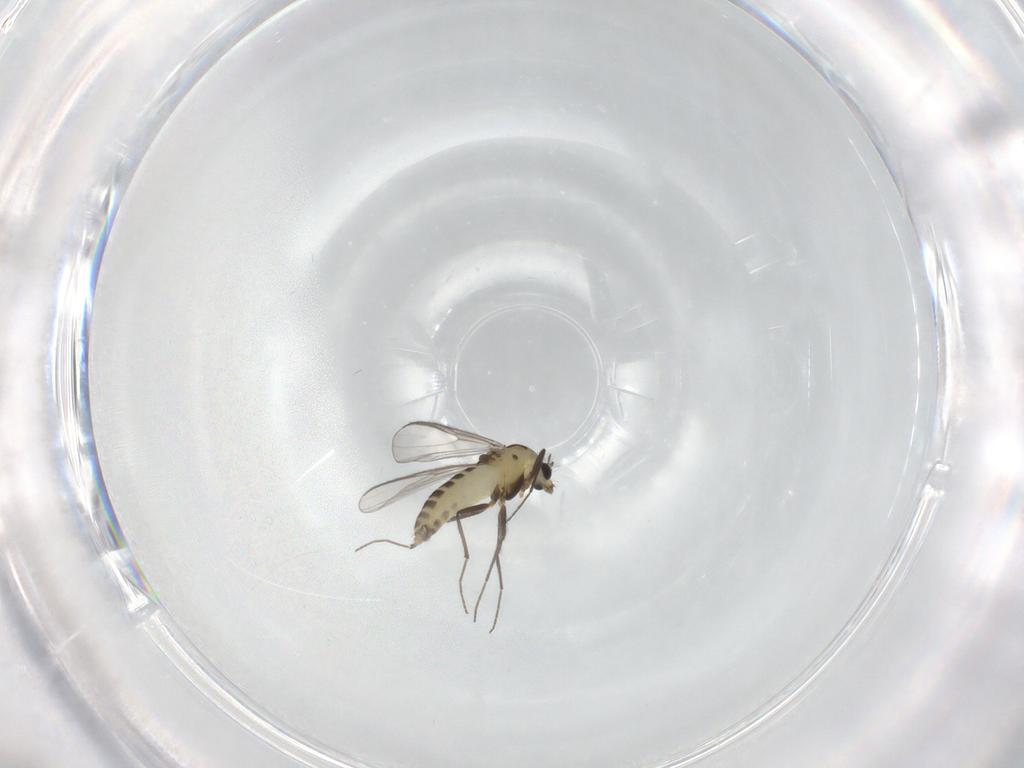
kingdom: Animalia
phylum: Arthropoda
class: Insecta
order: Diptera
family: Chironomidae
